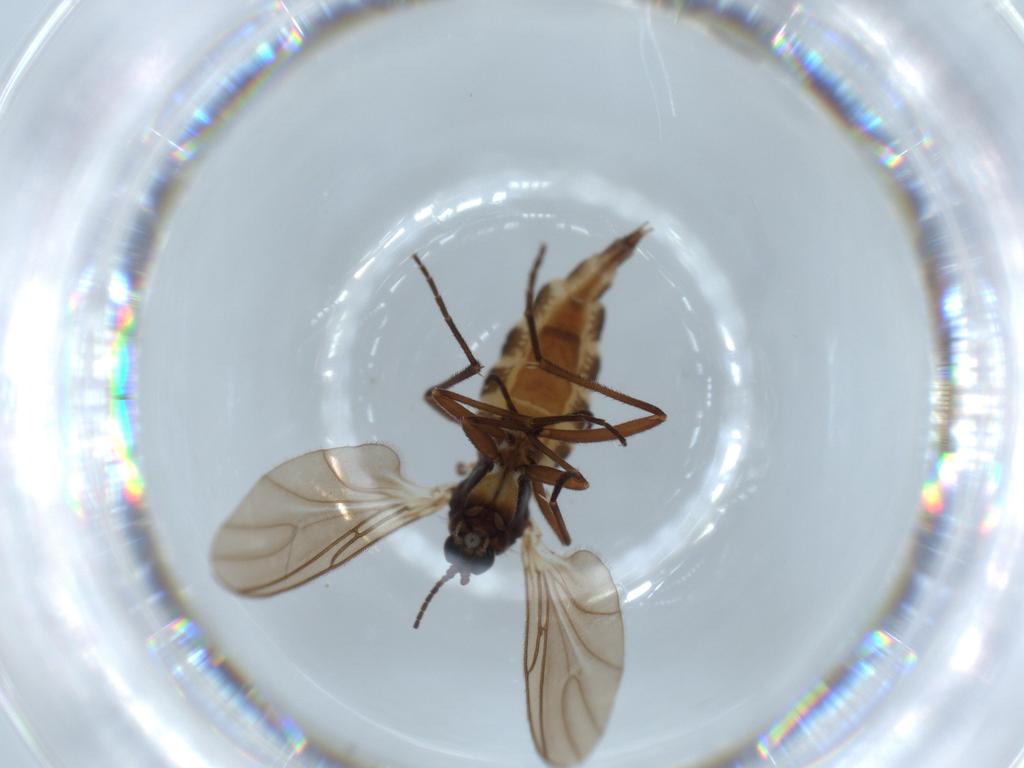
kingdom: Animalia
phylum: Arthropoda
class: Insecta
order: Diptera
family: Sciaridae
